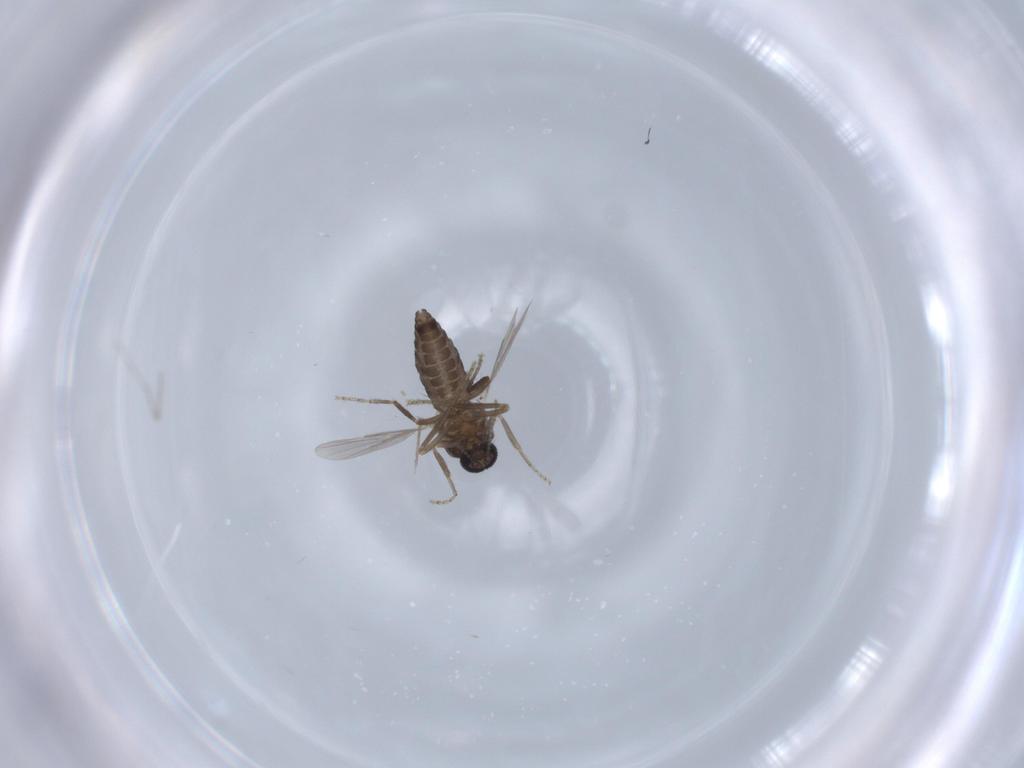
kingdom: Animalia
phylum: Arthropoda
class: Insecta
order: Diptera
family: Ceratopogonidae
